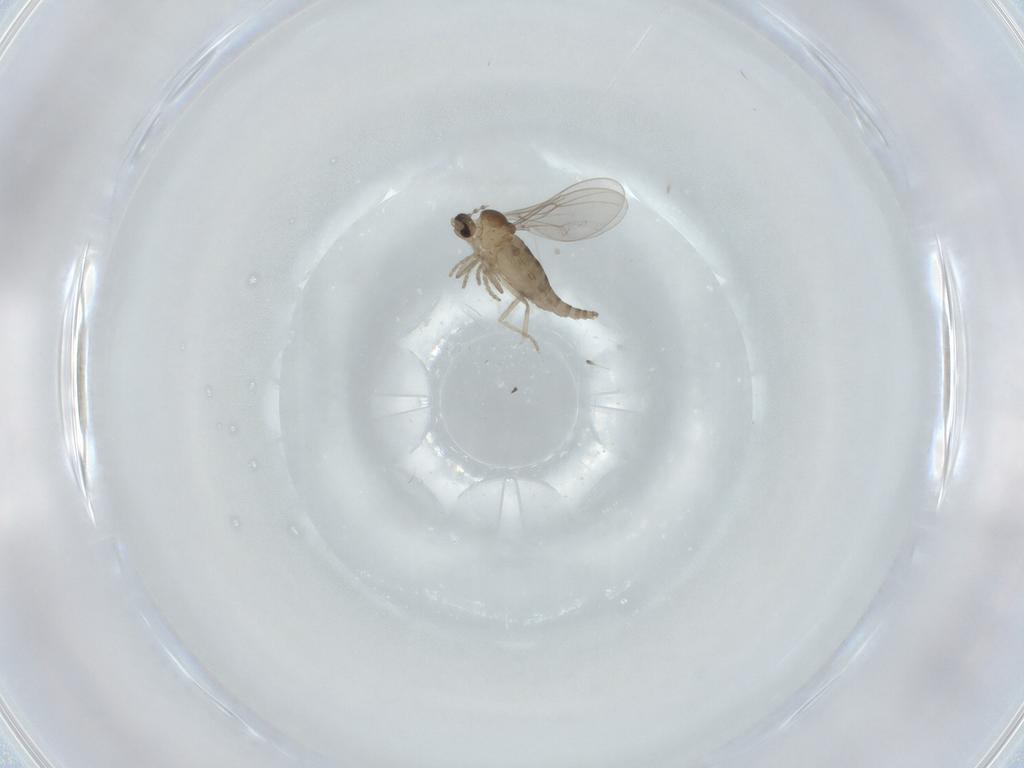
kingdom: Animalia
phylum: Arthropoda
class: Insecta
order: Diptera
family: Cecidomyiidae
